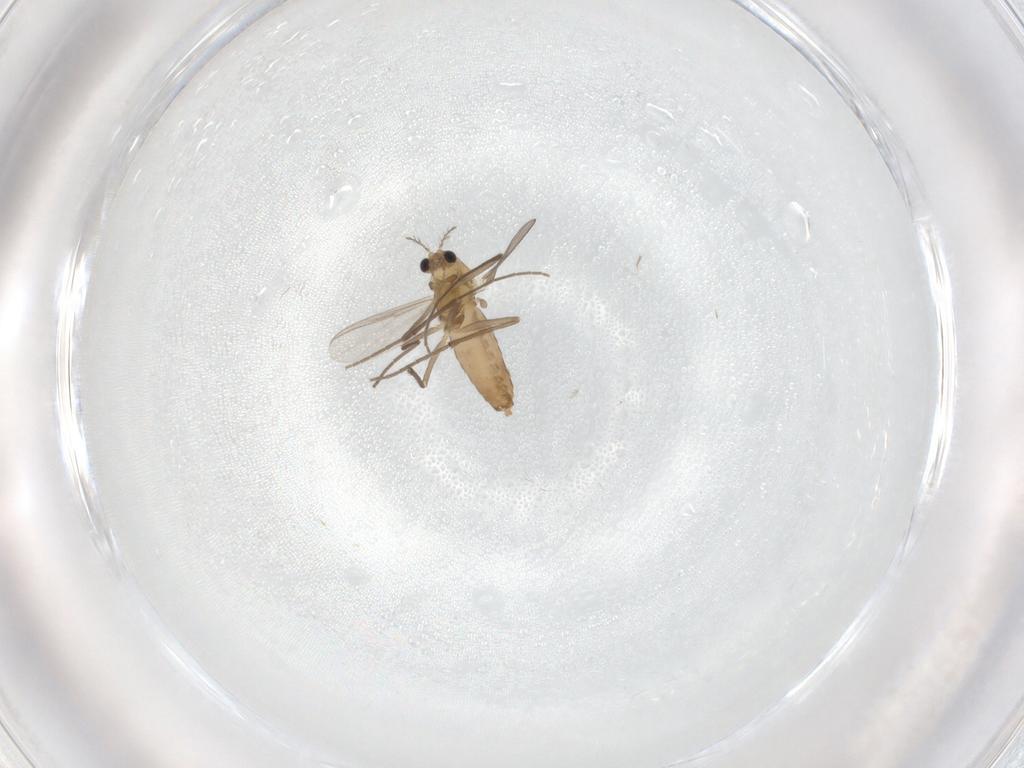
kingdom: Animalia
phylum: Arthropoda
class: Insecta
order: Diptera
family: Chironomidae
